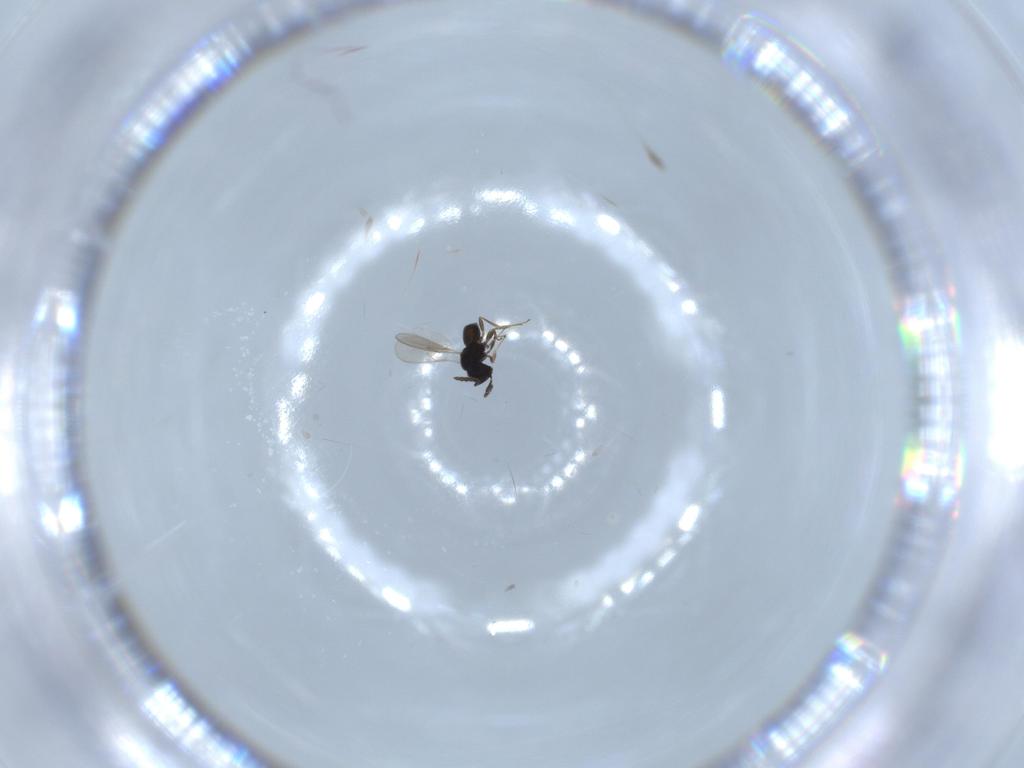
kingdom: Animalia
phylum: Arthropoda
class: Insecta
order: Hymenoptera
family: Scelionidae
